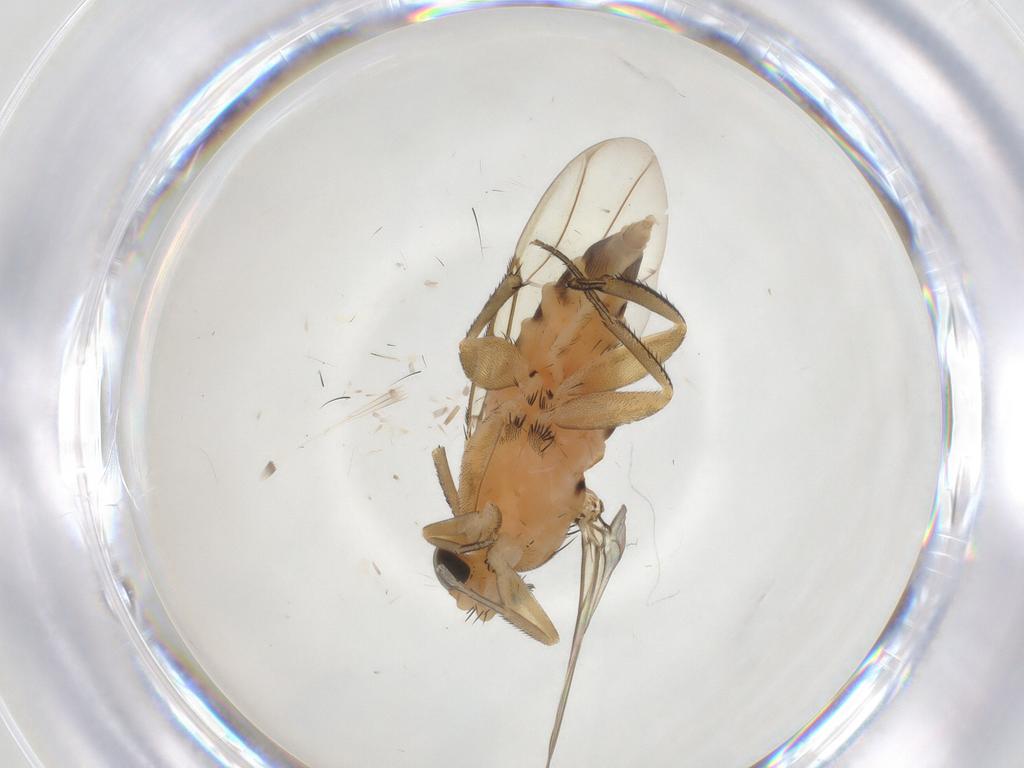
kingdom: Animalia
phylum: Arthropoda
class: Insecta
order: Diptera
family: Phoridae
